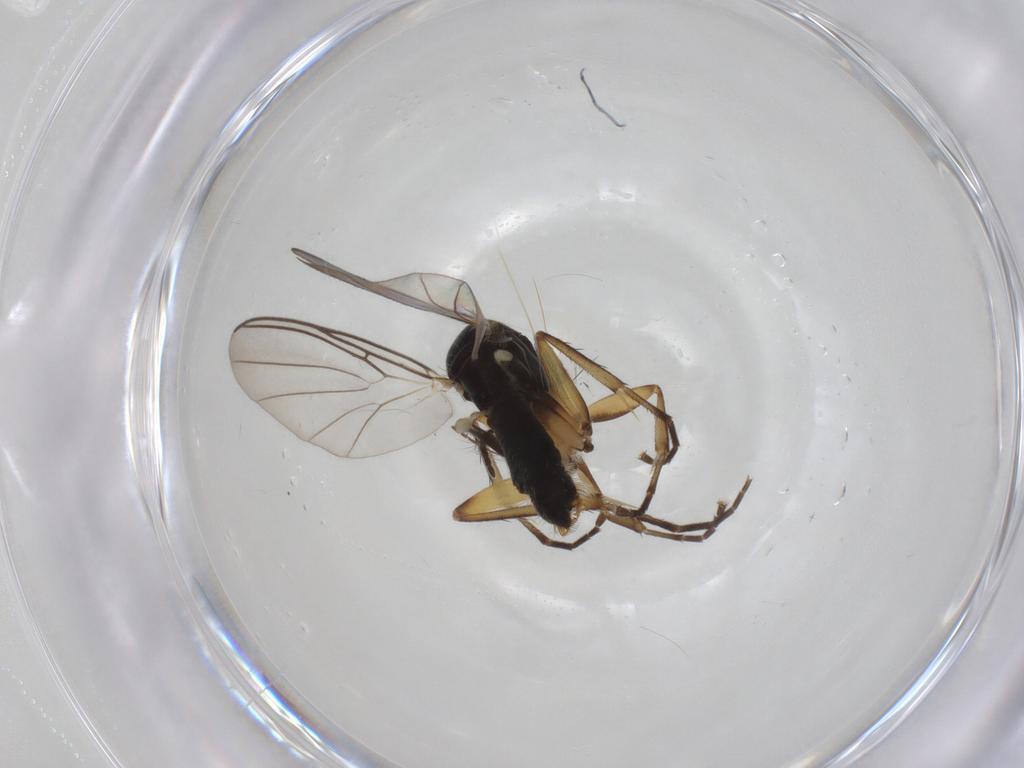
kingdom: Animalia
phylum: Arthropoda
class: Insecta
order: Diptera
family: Mycetophilidae
